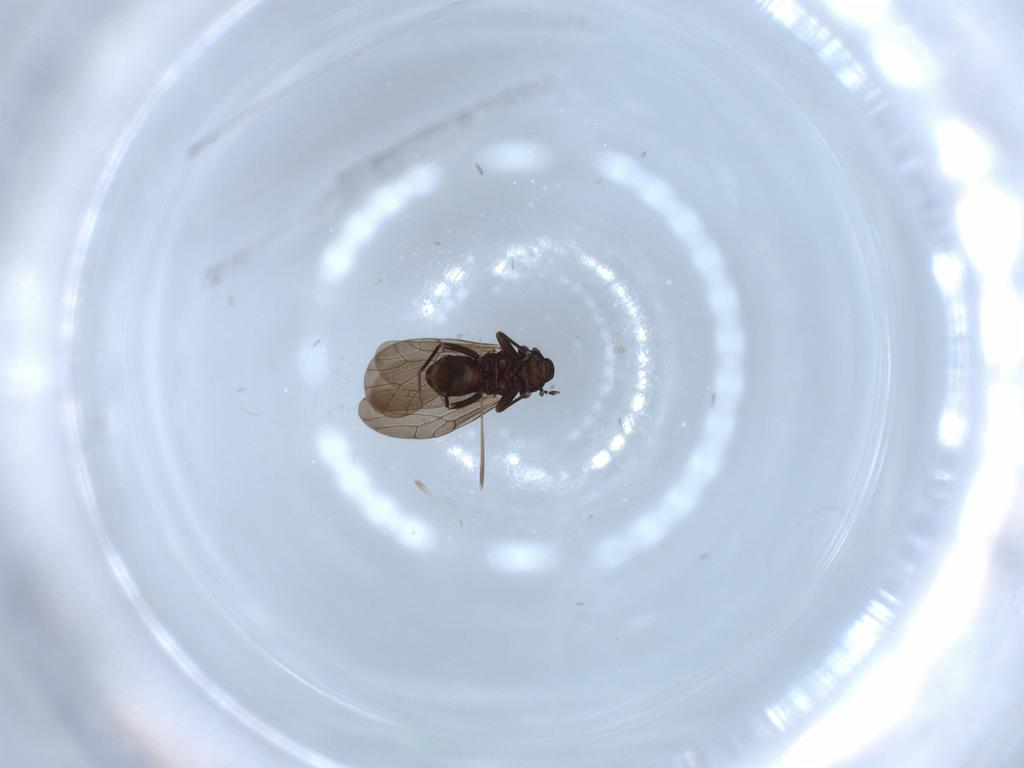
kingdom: Animalia
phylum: Arthropoda
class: Insecta
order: Psocodea
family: Lepidopsocidae
